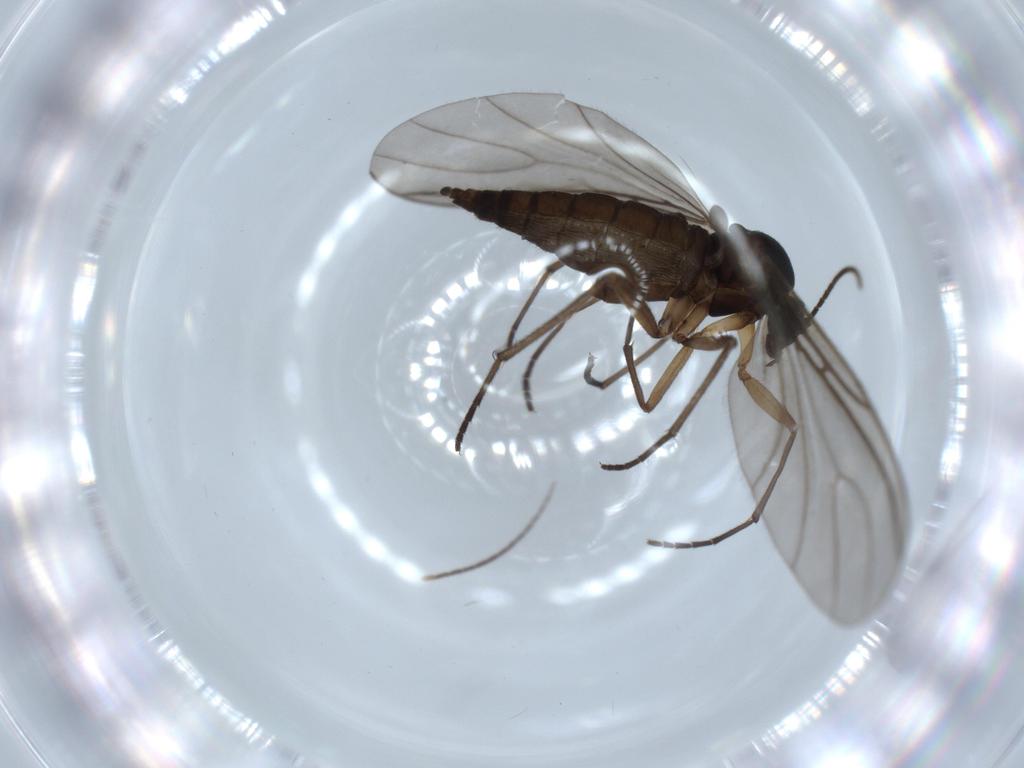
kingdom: Animalia
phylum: Arthropoda
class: Insecta
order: Diptera
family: Sciaridae
